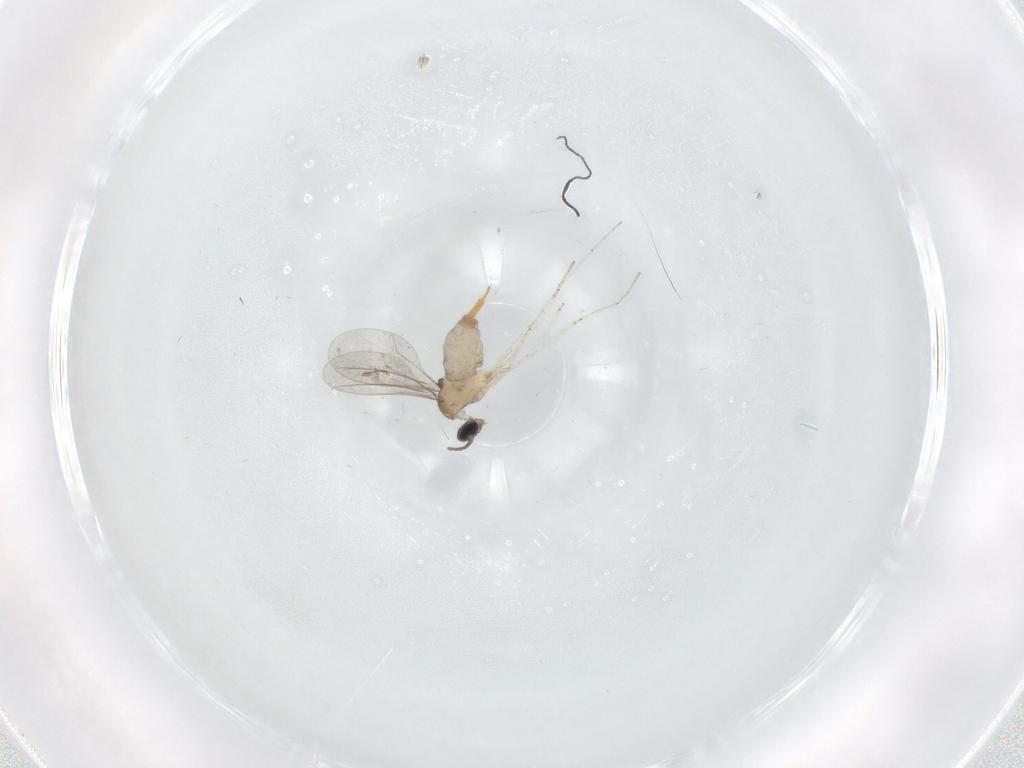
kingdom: Animalia
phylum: Arthropoda
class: Insecta
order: Diptera
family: Cecidomyiidae
